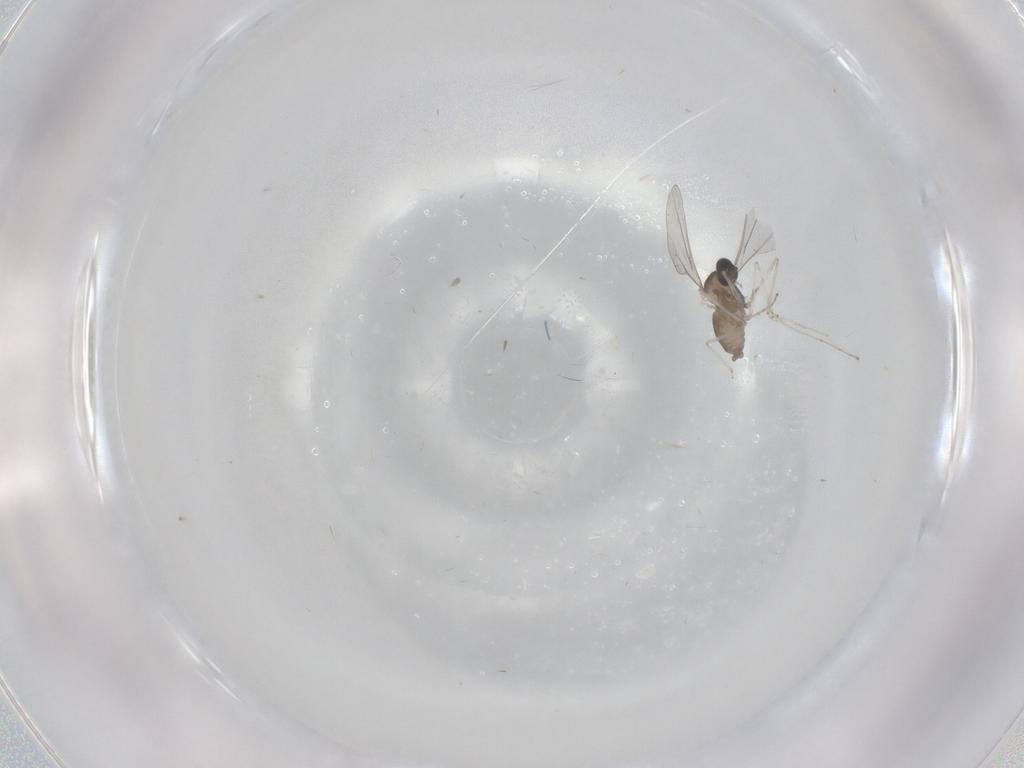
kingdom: Animalia
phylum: Arthropoda
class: Insecta
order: Diptera
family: Cecidomyiidae
